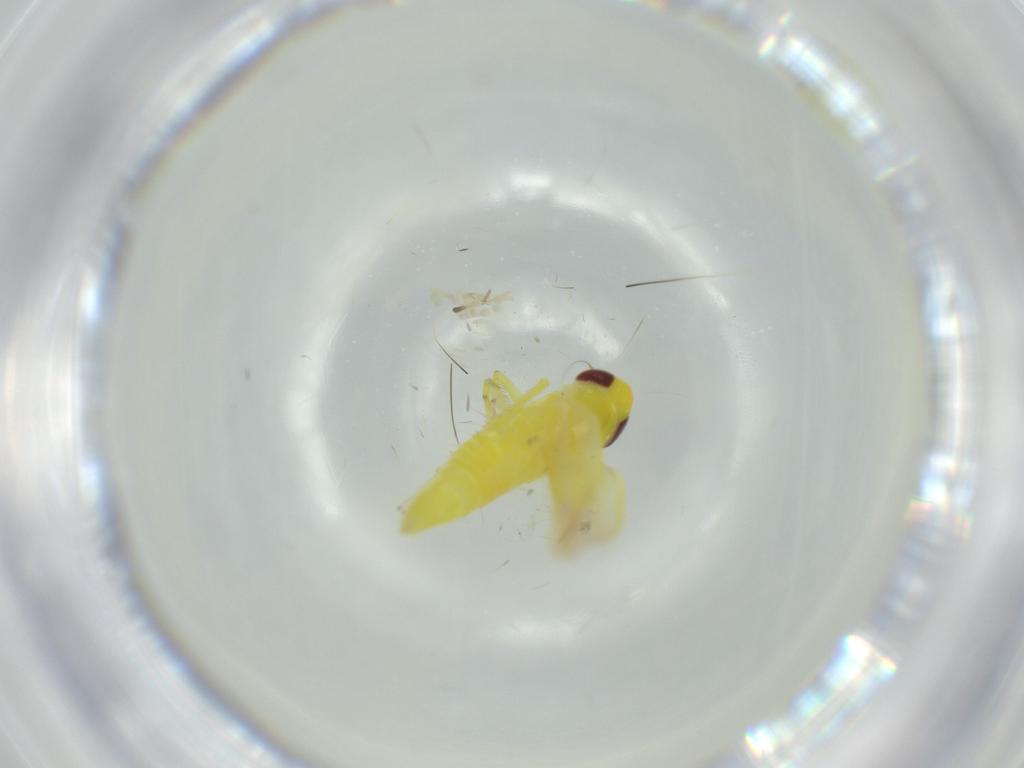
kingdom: Animalia
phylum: Arthropoda
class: Insecta
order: Hemiptera
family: Cicadellidae
